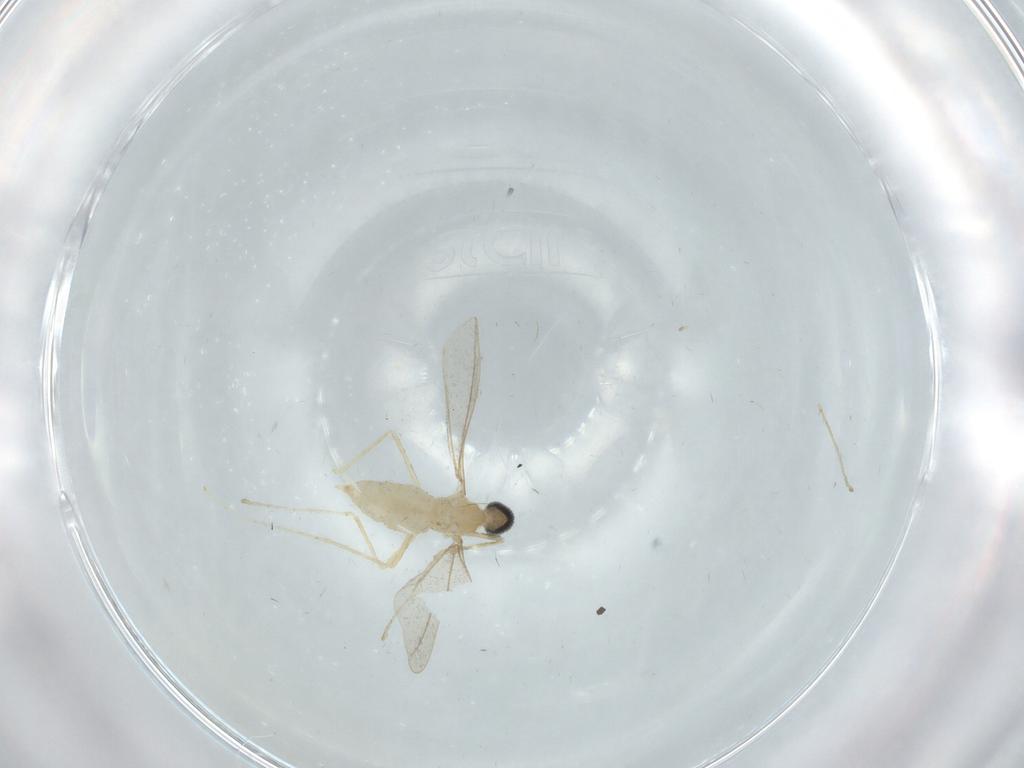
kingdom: Animalia
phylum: Arthropoda
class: Insecta
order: Diptera
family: Cecidomyiidae
